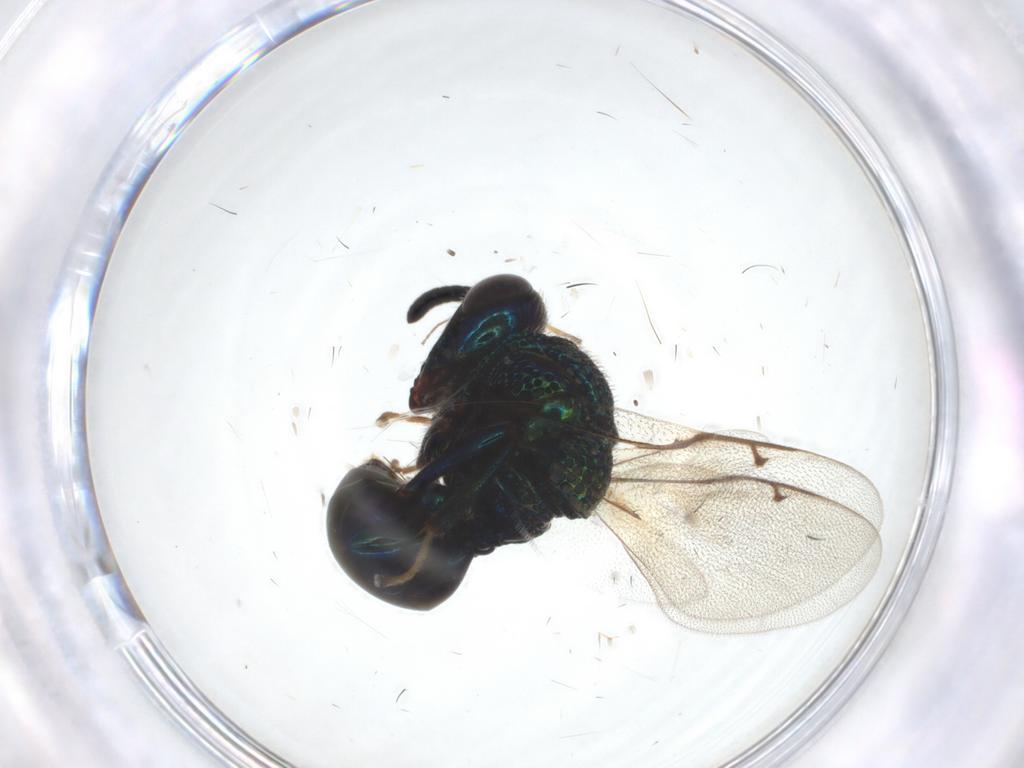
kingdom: Animalia
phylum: Arthropoda
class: Insecta
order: Hymenoptera
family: Tenthredinidae
